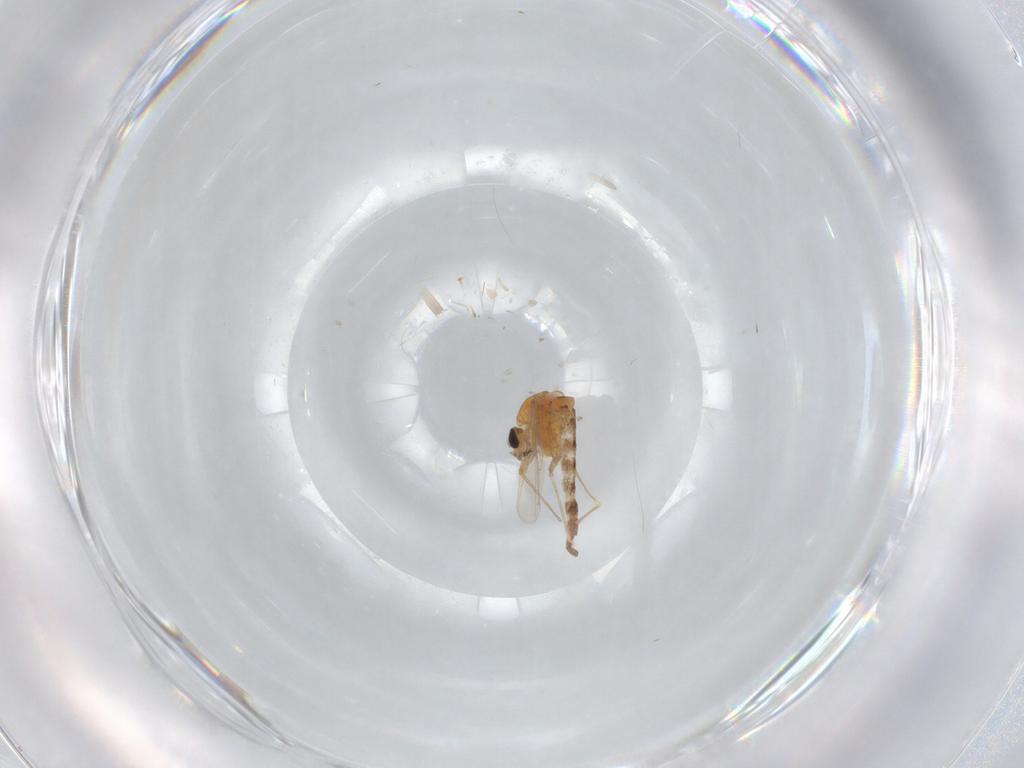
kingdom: Animalia
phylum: Arthropoda
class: Insecta
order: Diptera
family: Chironomidae
